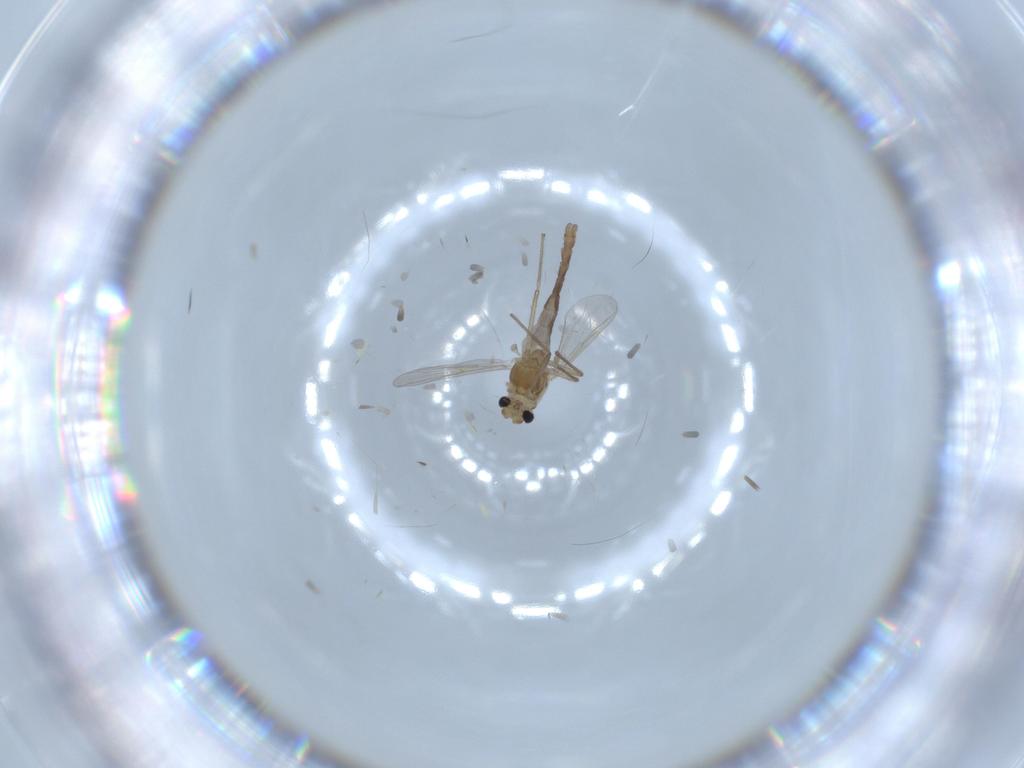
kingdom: Animalia
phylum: Arthropoda
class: Insecta
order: Diptera
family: Chironomidae
